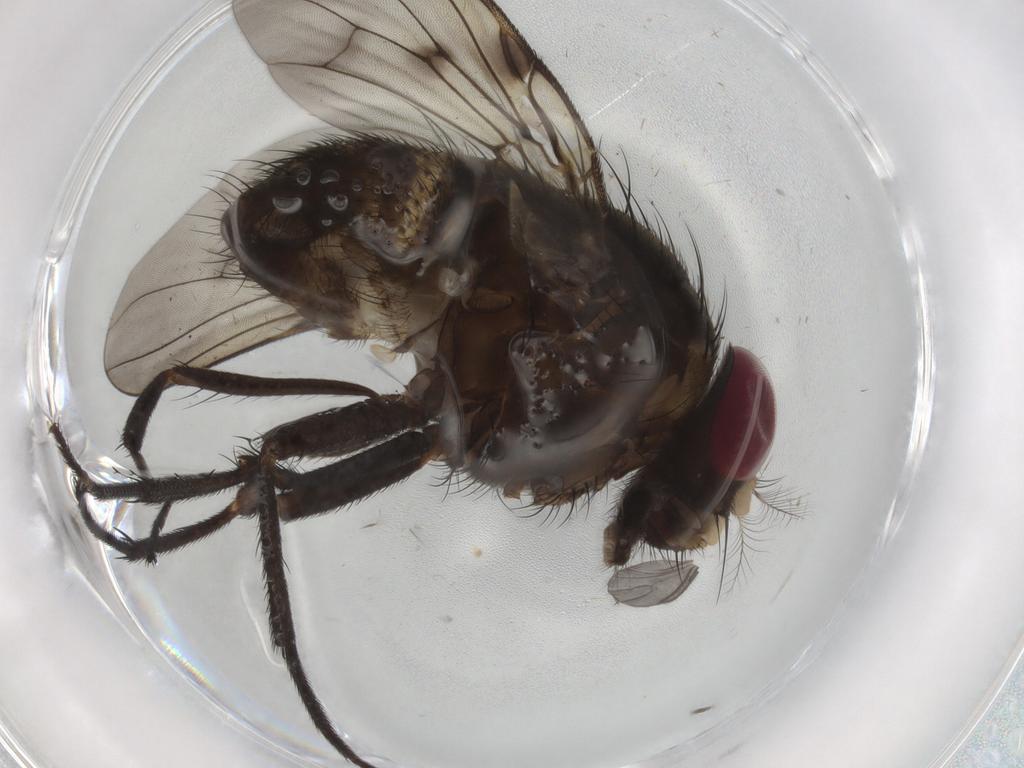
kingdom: Animalia
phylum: Arthropoda
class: Insecta
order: Diptera
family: Muscidae
